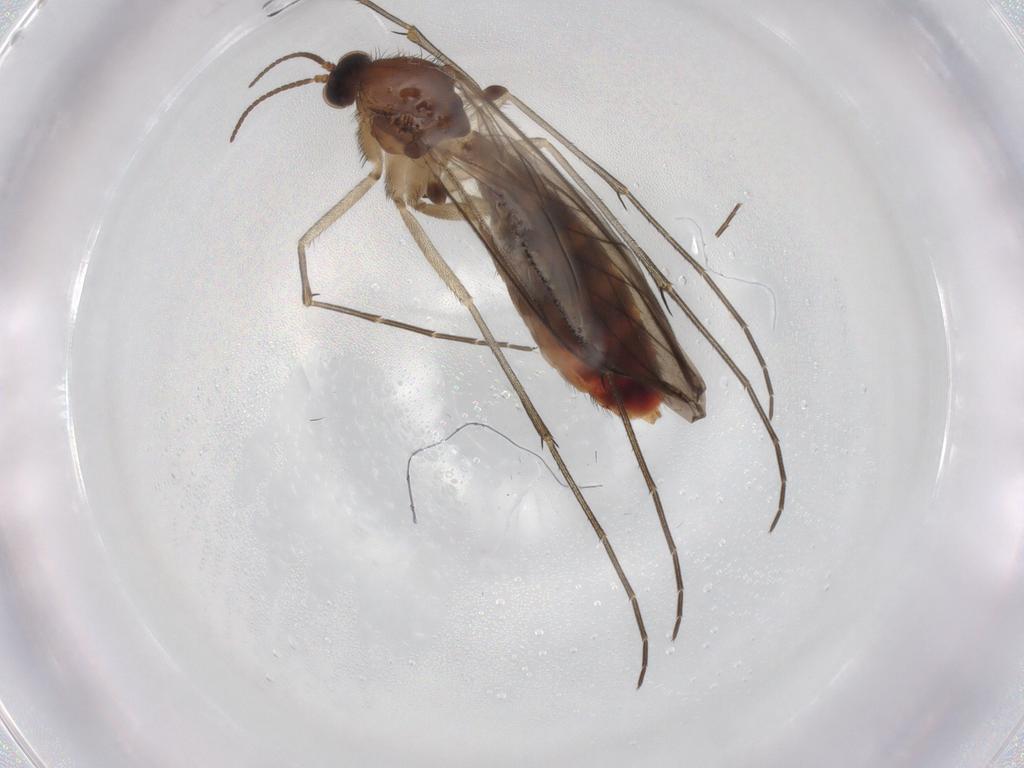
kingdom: Animalia
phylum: Arthropoda
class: Insecta
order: Diptera
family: Keroplatidae
